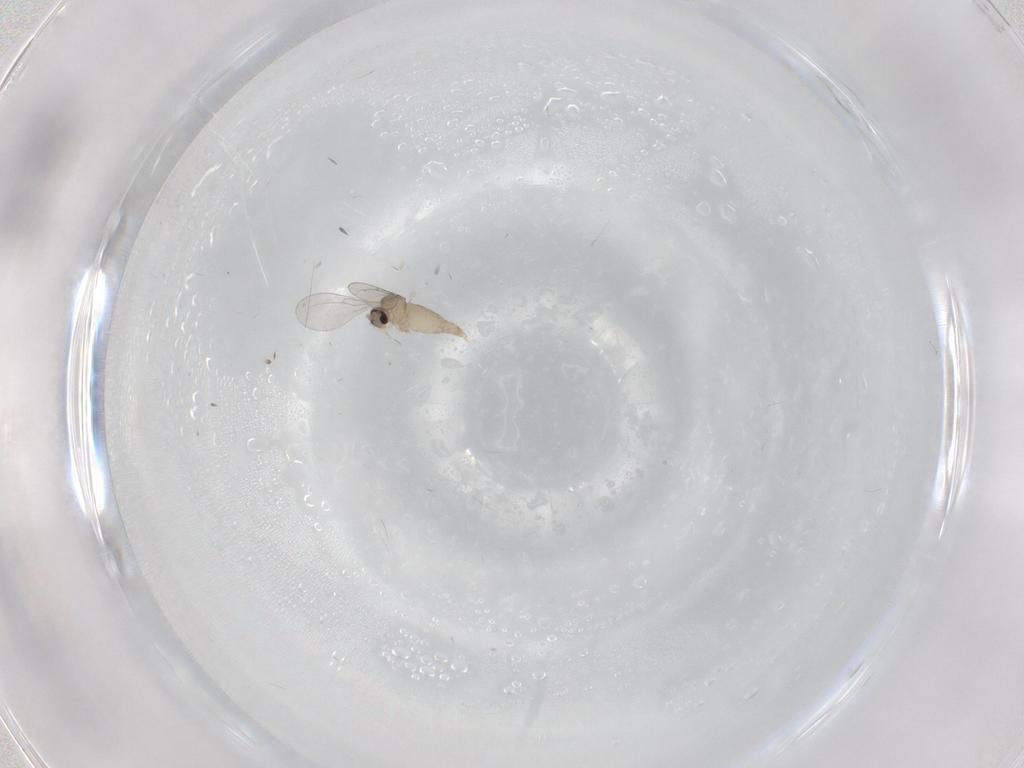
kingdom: Animalia
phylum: Arthropoda
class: Insecta
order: Diptera
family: Cecidomyiidae
